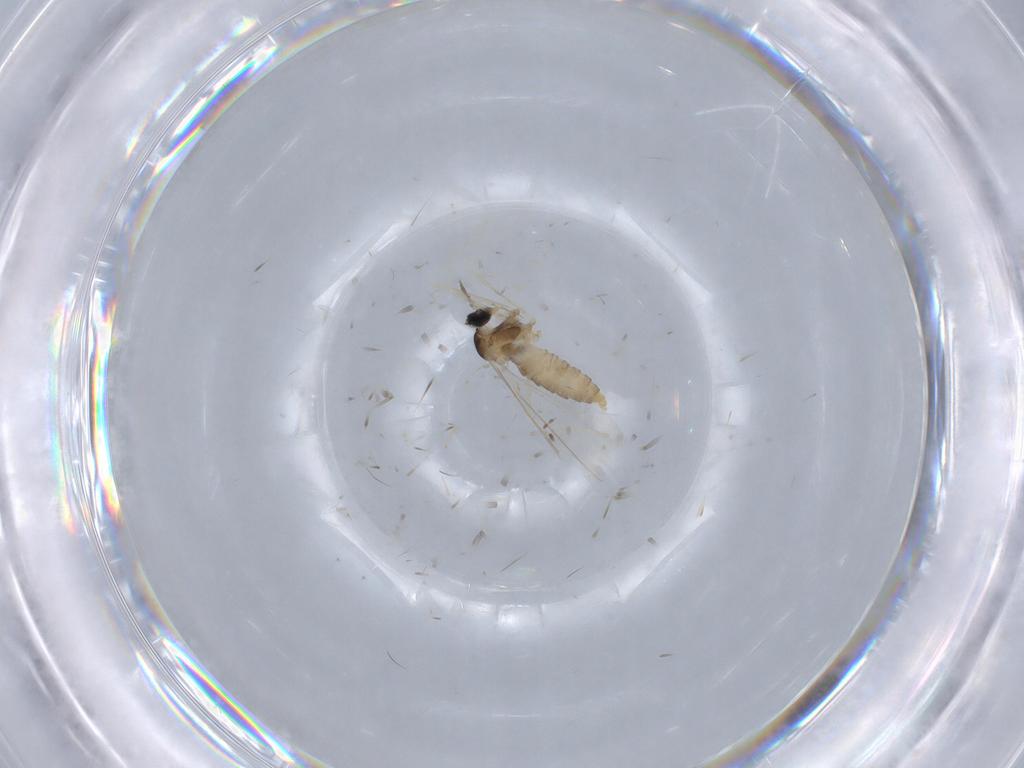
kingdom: Animalia
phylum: Arthropoda
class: Insecta
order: Diptera
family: Cecidomyiidae
